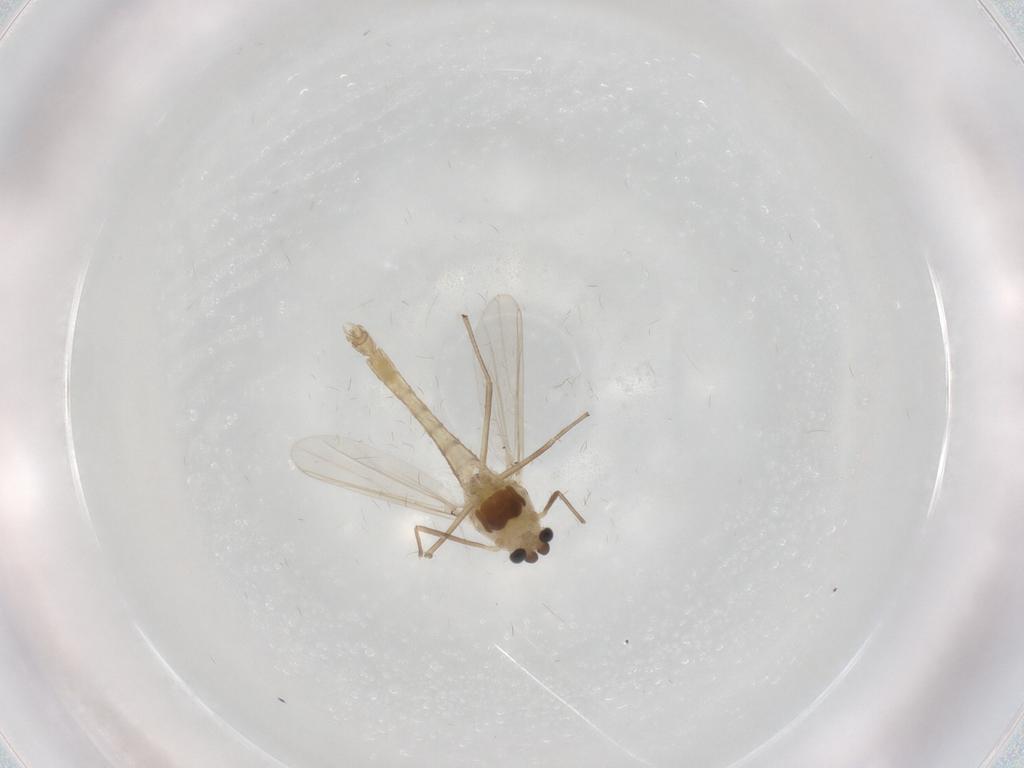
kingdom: Animalia
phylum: Arthropoda
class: Insecta
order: Diptera
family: Chironomidae
